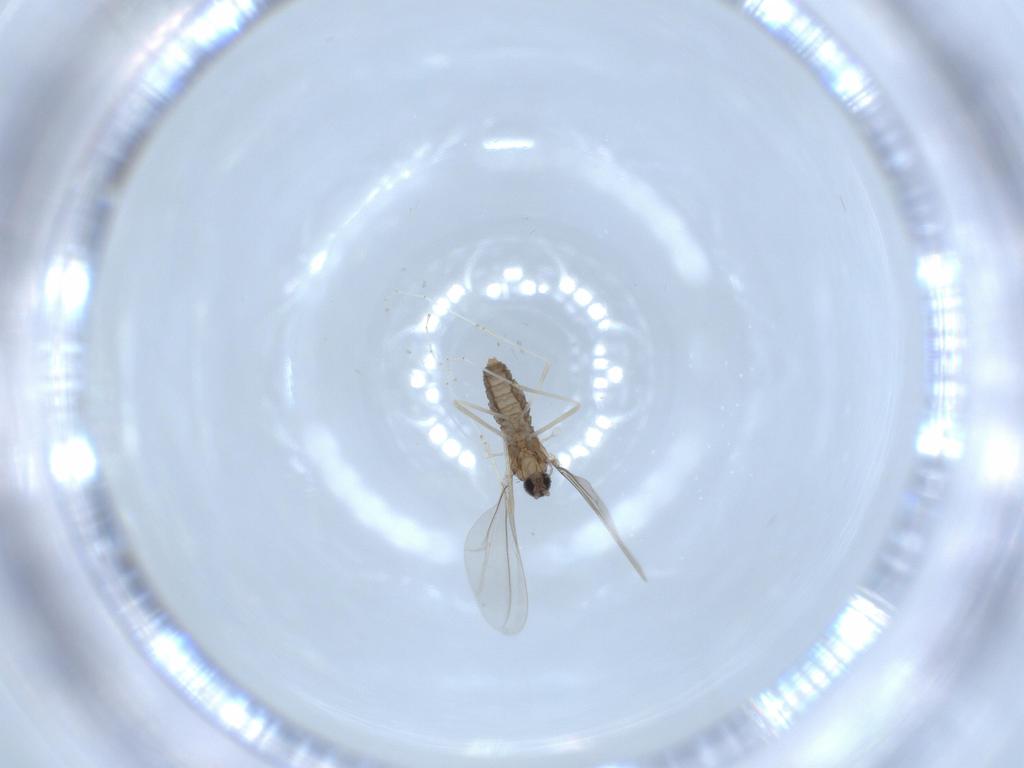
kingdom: Animalia
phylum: Arthropoda
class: Insecta
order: Diptera
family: Cecidomyiidae
